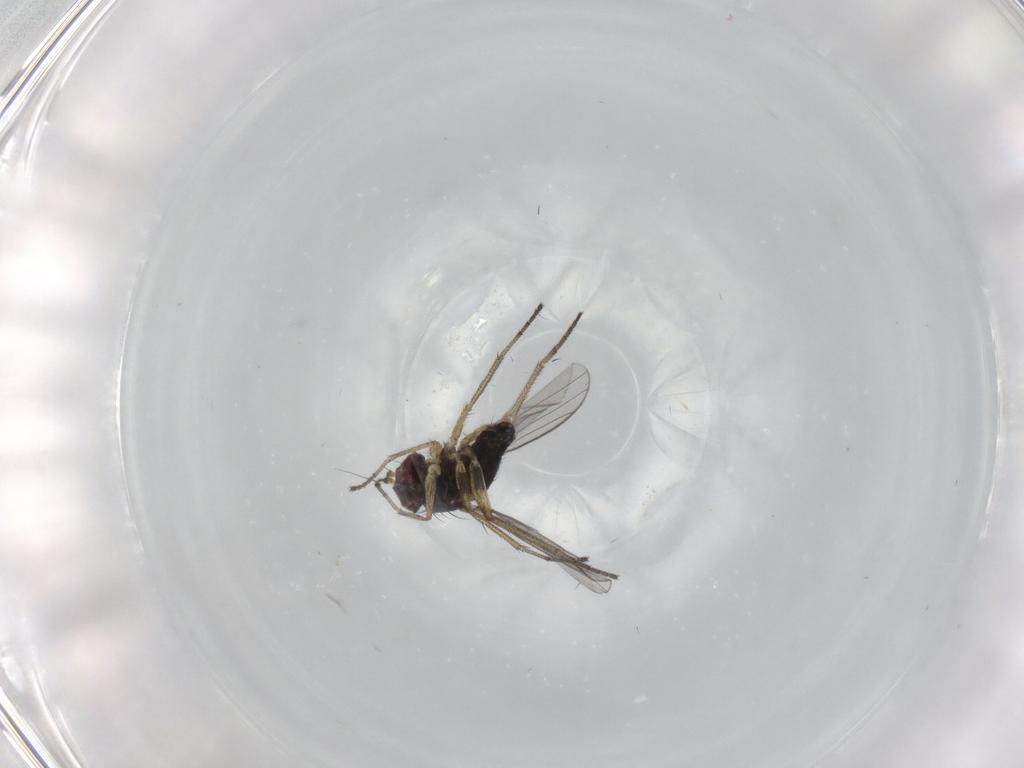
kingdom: Animalia
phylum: Arthropoda
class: Insecta
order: Diptera
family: Dolichopodidae
